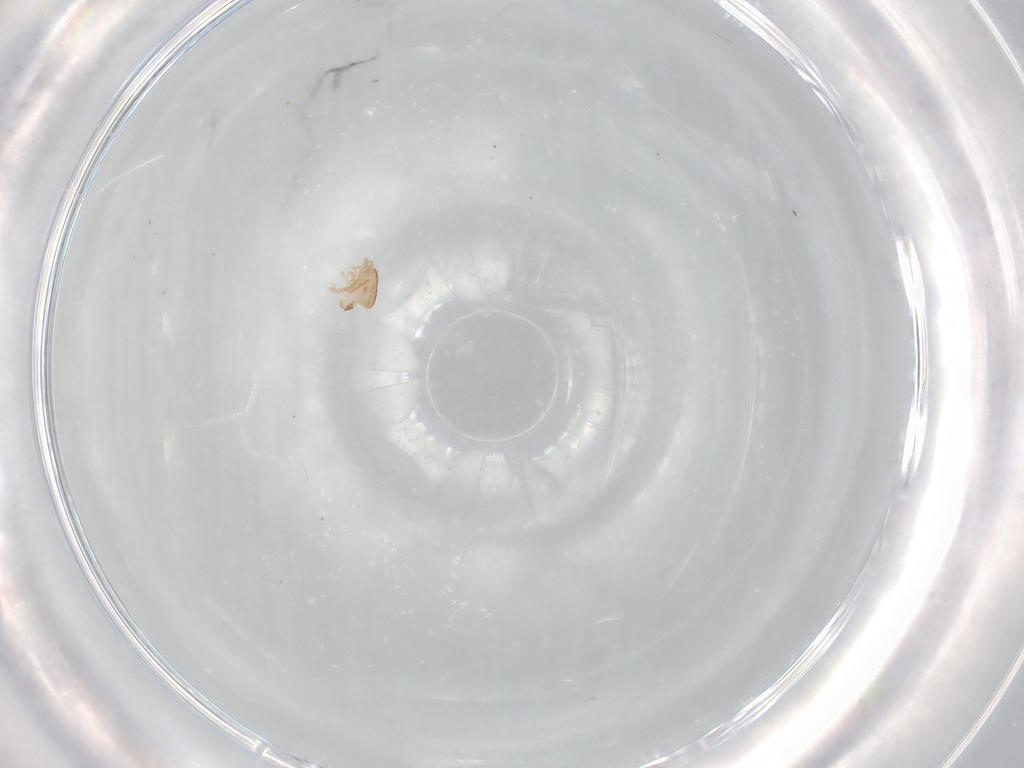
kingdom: Animalia
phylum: Arthropoda
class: Arachnida
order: Mesostigmata
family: Ascidae
